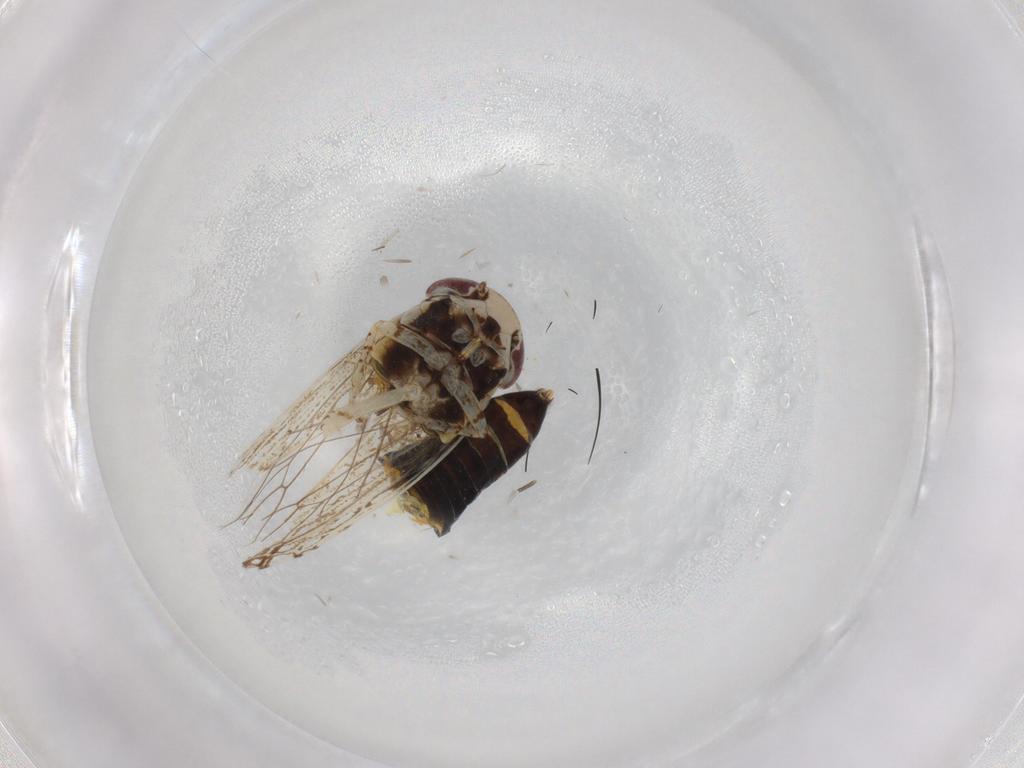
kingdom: Animalia
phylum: Arthropoda
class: Insecta
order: Hemiptera
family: Cicadellidae
